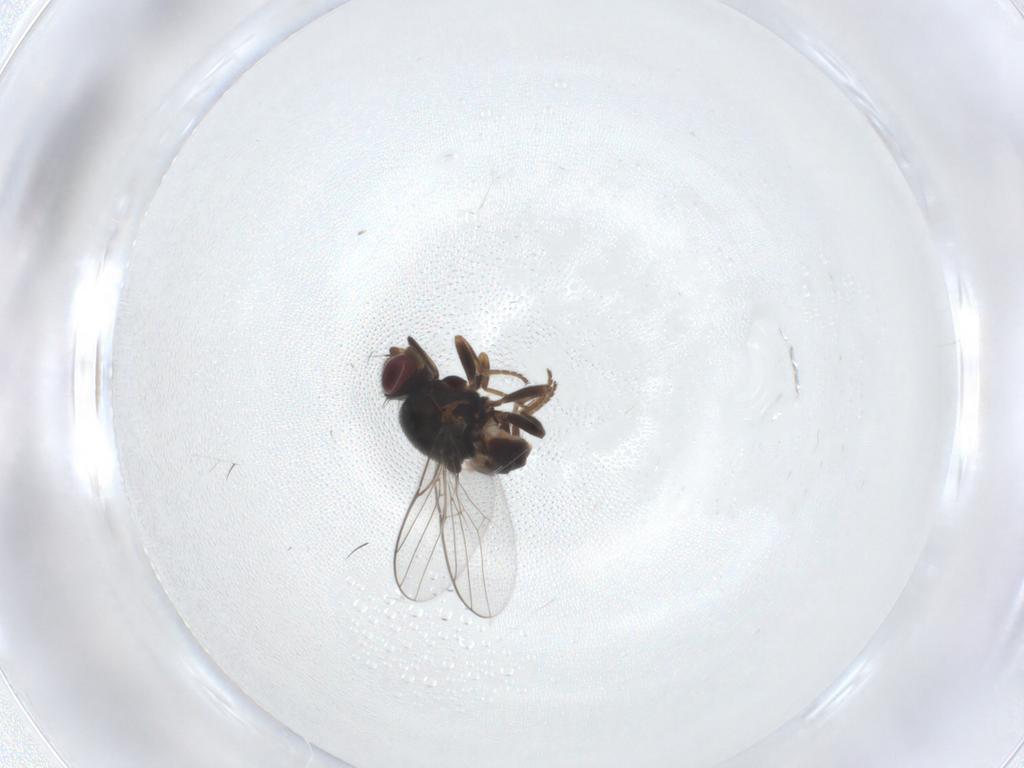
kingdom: Animalia
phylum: Arthropoda
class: Insecta
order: Diptera
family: Chloropidae
